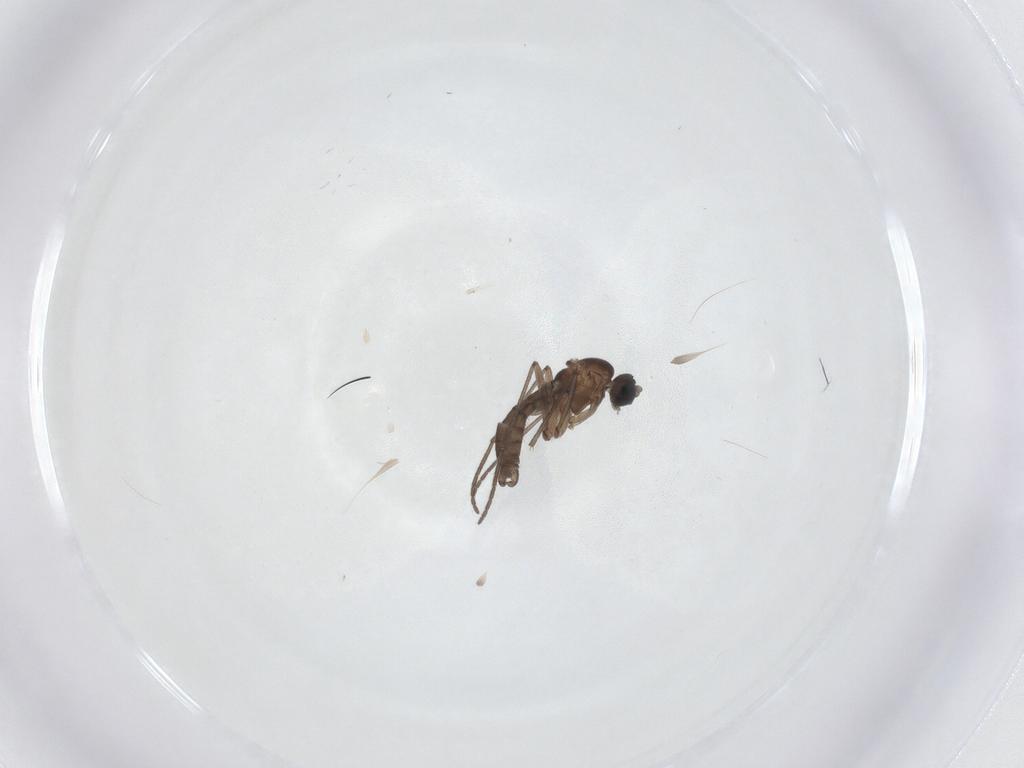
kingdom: Animalia
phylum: Arthropoda
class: Insecta
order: Diptera
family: Sciaridae
